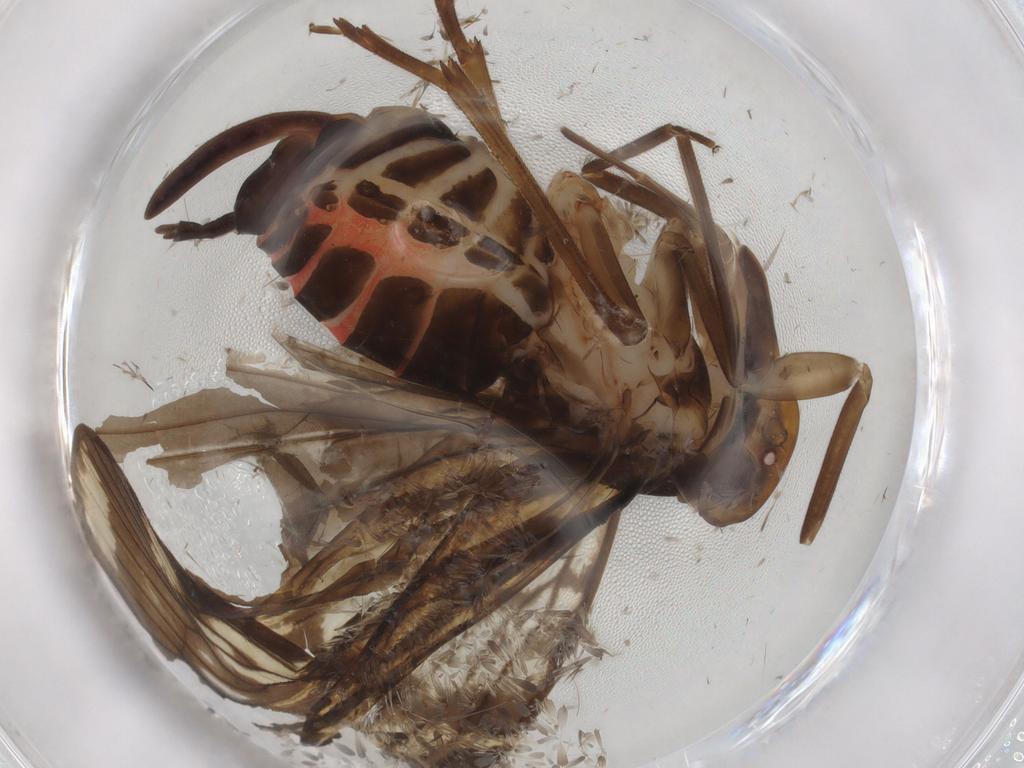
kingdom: Animalia
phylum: Arthropoda
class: Insecta
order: Hemiptera
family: Cixiidae
